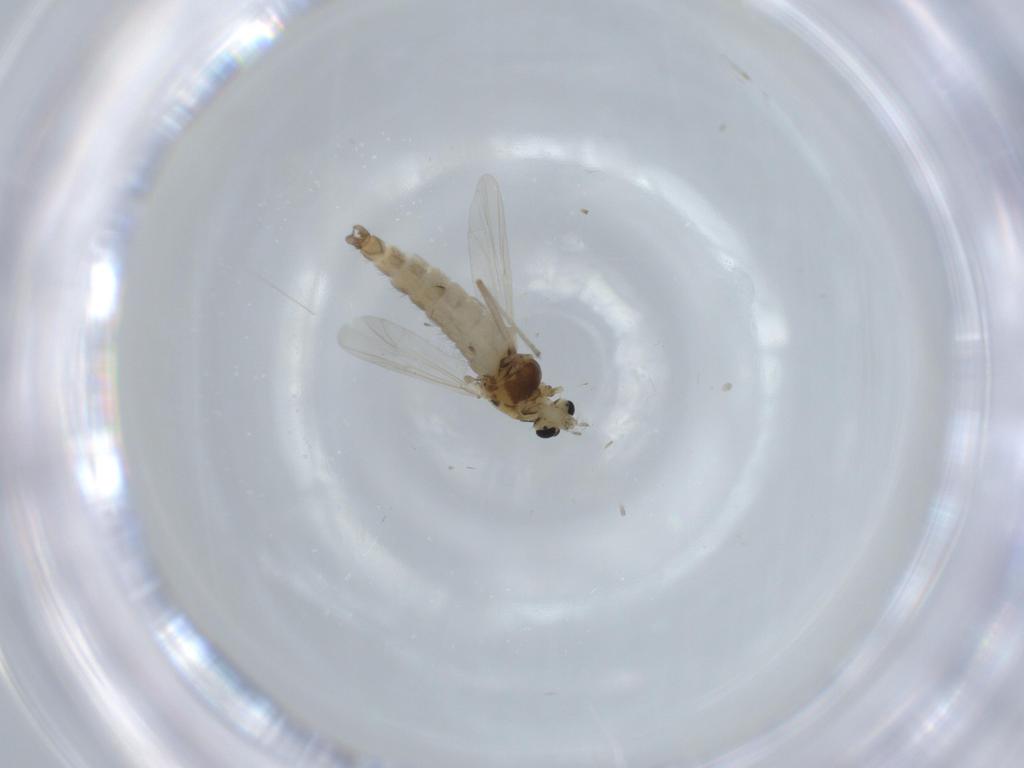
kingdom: Animalia
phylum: Arthropoda
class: Insecta
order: Diptera
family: Chironomidae
